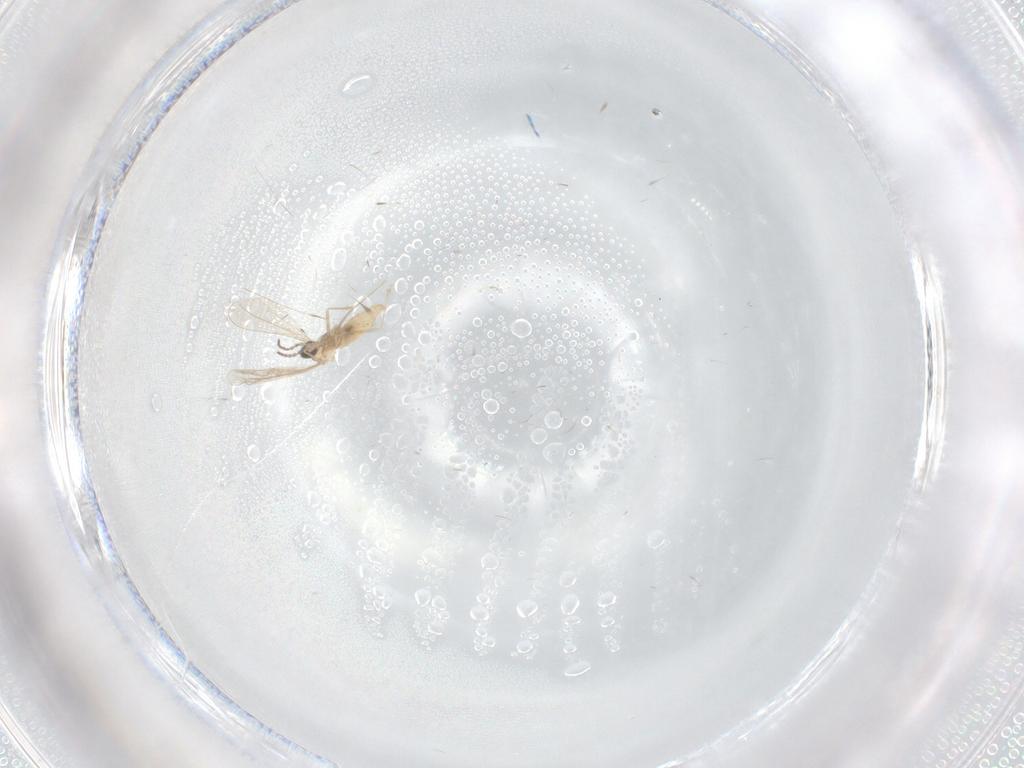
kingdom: Animalia
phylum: Arthropoda
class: Insecta
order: Diptera
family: Cecidomyiidae
